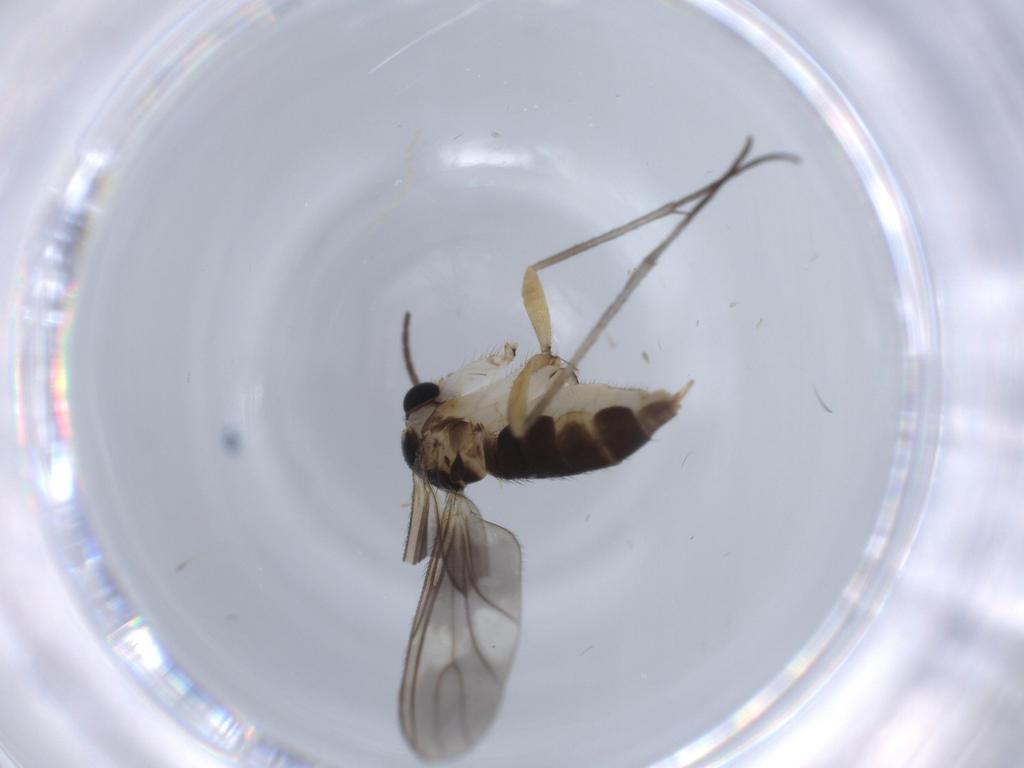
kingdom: Animalia
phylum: Arthropoda
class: Insecta
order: Diptera
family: Sciaridae
